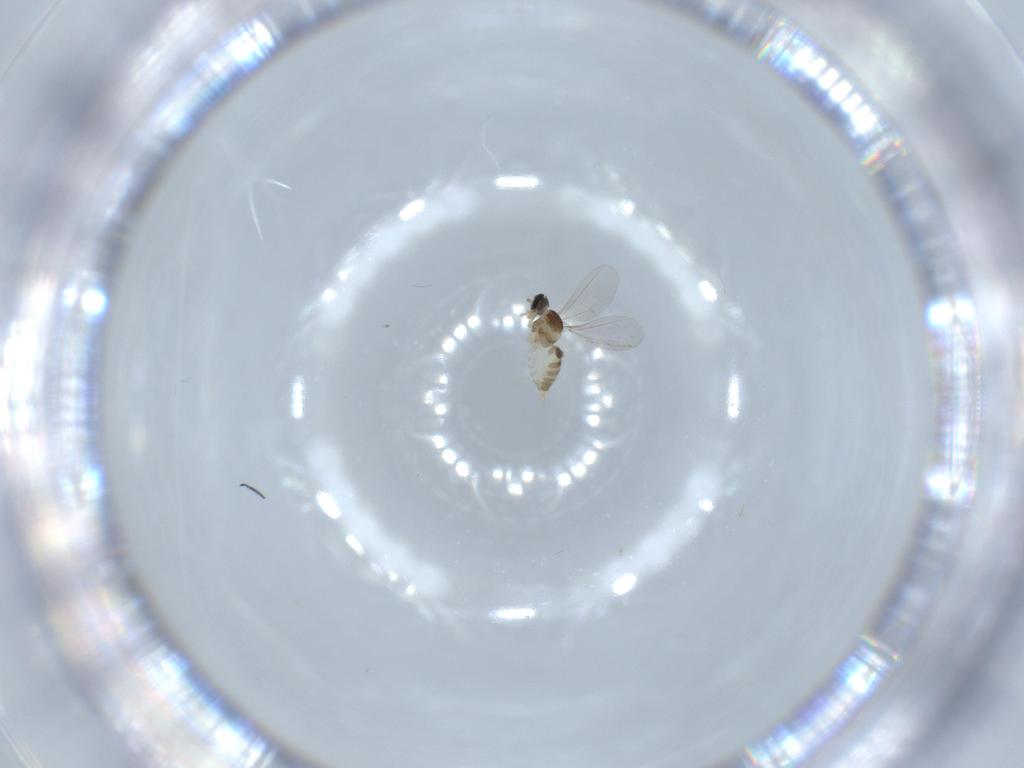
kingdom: Animalia
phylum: Arthropoda
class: Insecta
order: Diptera
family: Cecidomyiidae
